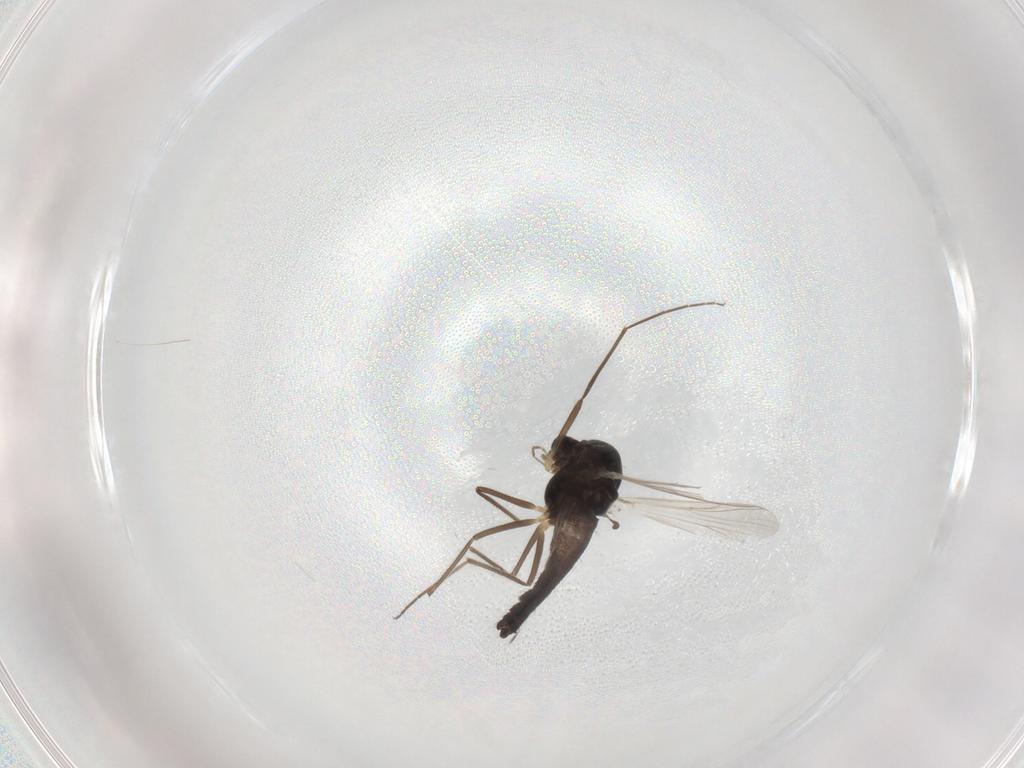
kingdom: Animalia
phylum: Arthropoda
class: Insecta
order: Diptera
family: Chironomidae
